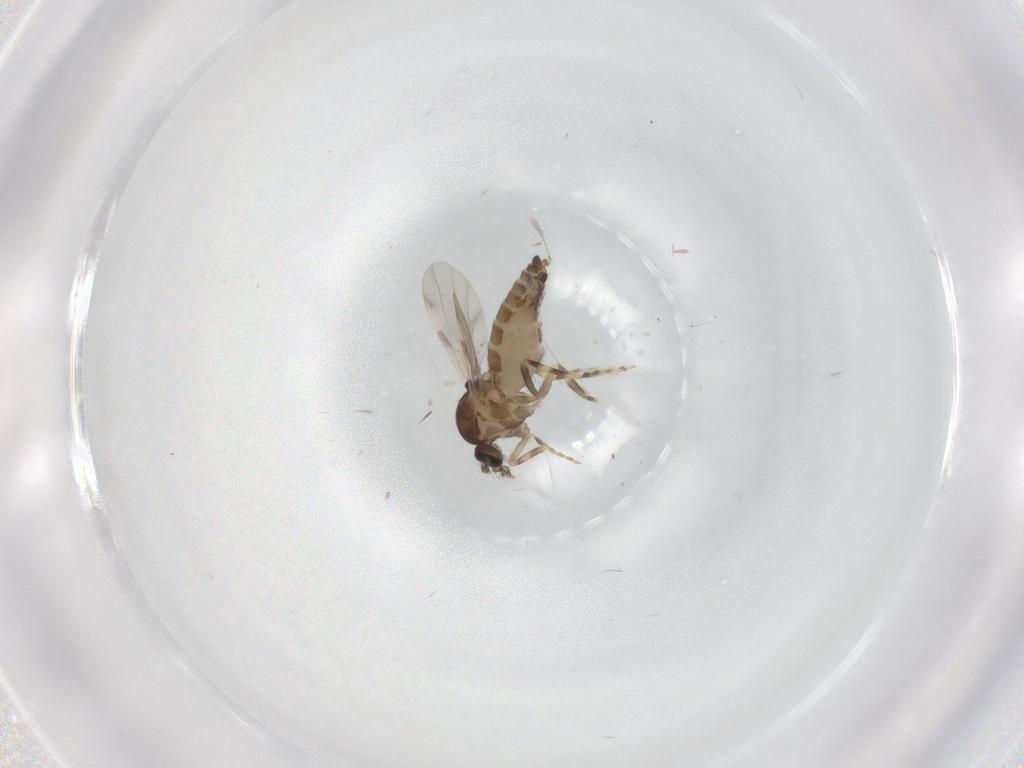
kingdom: Animalia
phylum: Arthropoda
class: Insecta
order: Diptera
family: Ceratopogonidae
